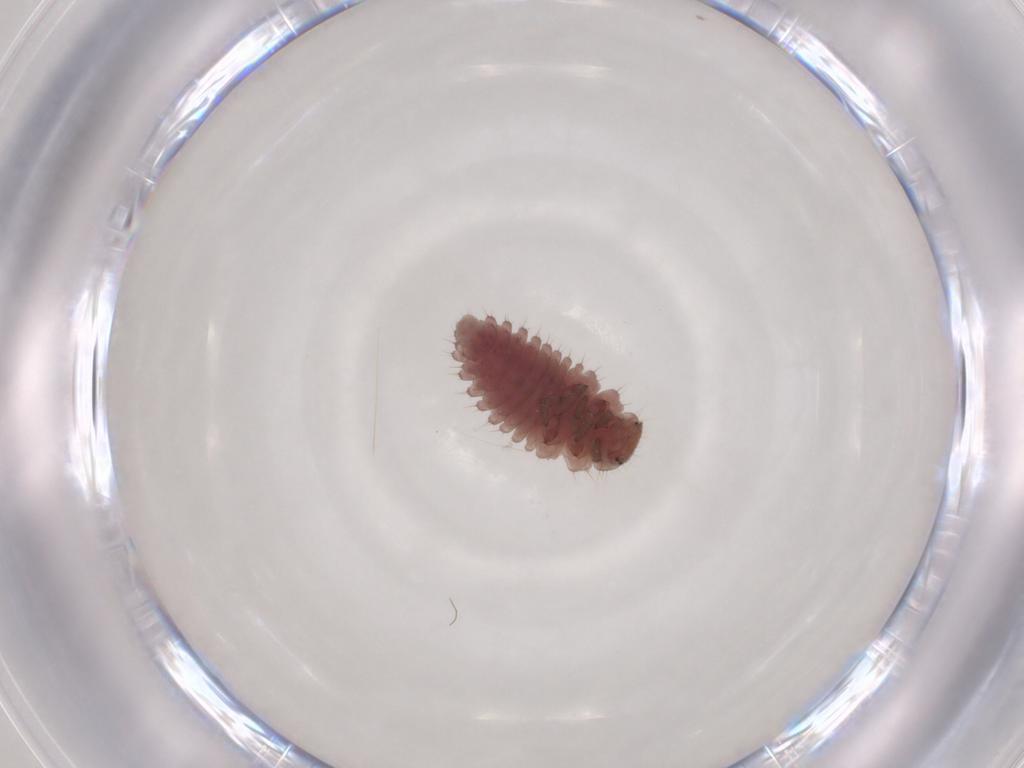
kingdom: Animalia
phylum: Arthropoda
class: Insecta
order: Coleoptera
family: Coccinellidae
